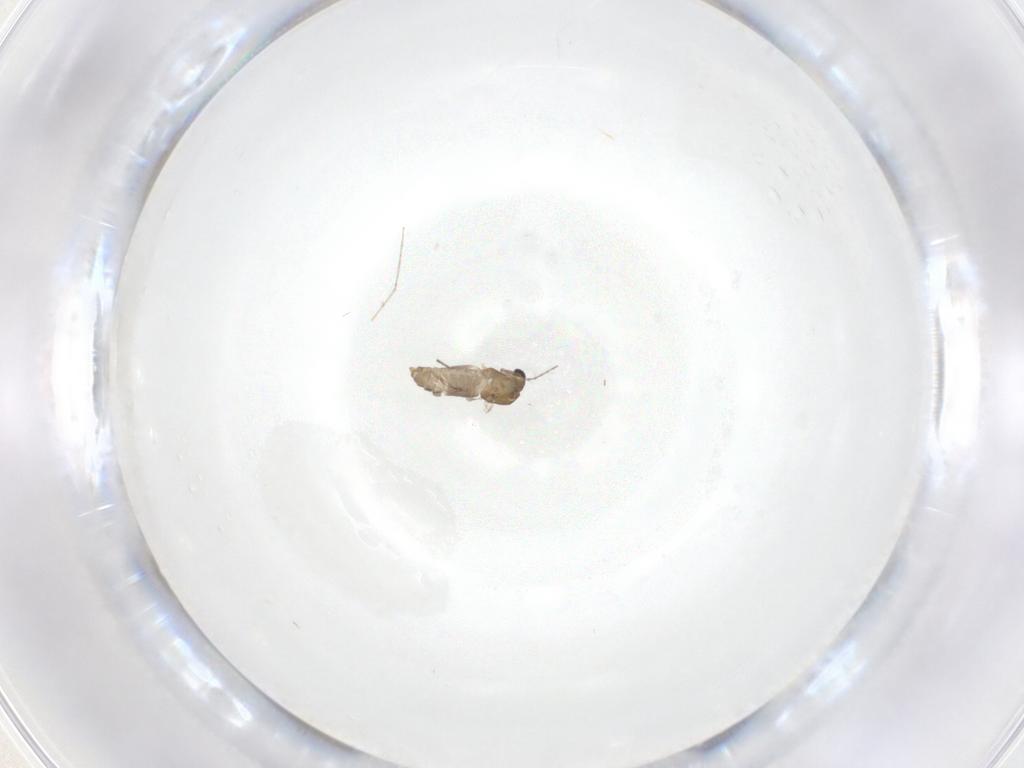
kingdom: Animalia
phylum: Arthropoda
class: Insecta
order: Diptera
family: Chironomidae
